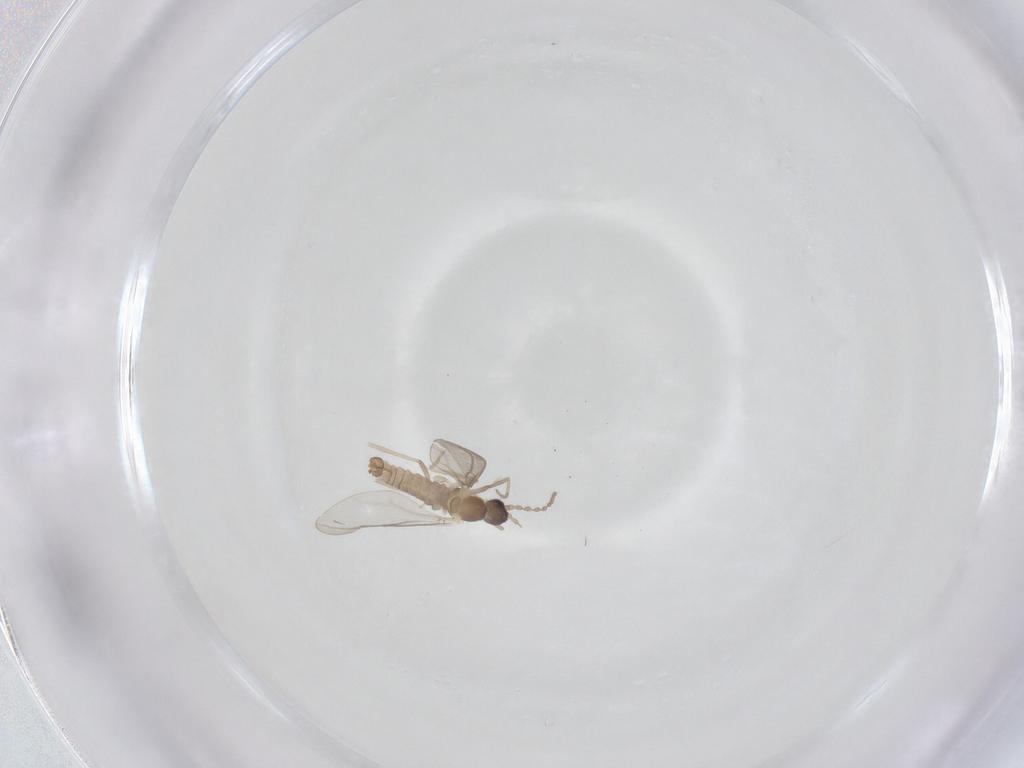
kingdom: Animalia
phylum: Arthropoda
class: Insecta
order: Diptera
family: Cecidomyiidae
